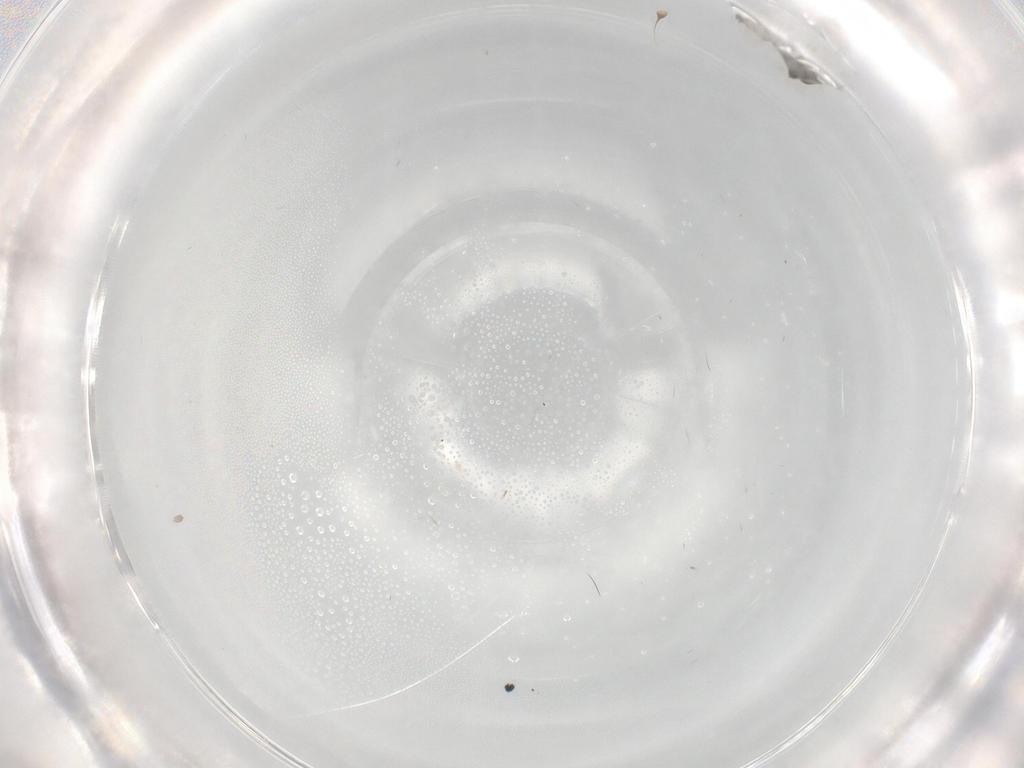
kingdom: Animalia
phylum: Arthropoda
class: Insecta
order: Diptera
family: Cecidomyiidae
